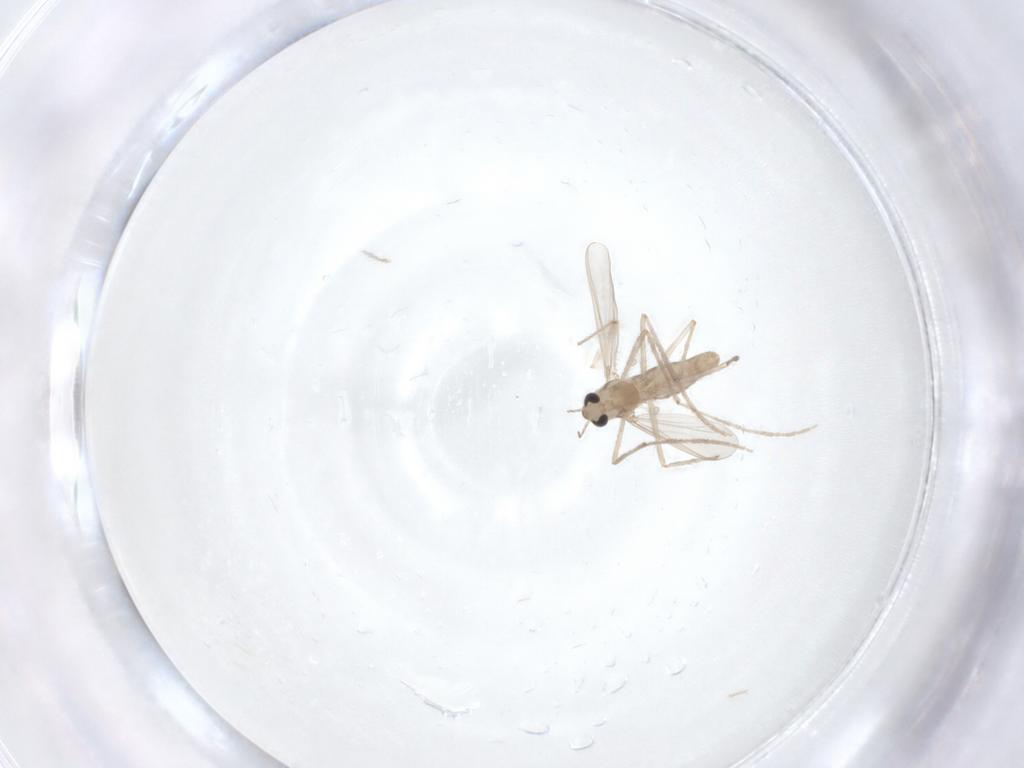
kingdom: Animalia
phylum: Arthropoda
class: Insecta
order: Diptera
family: Chironomidae
